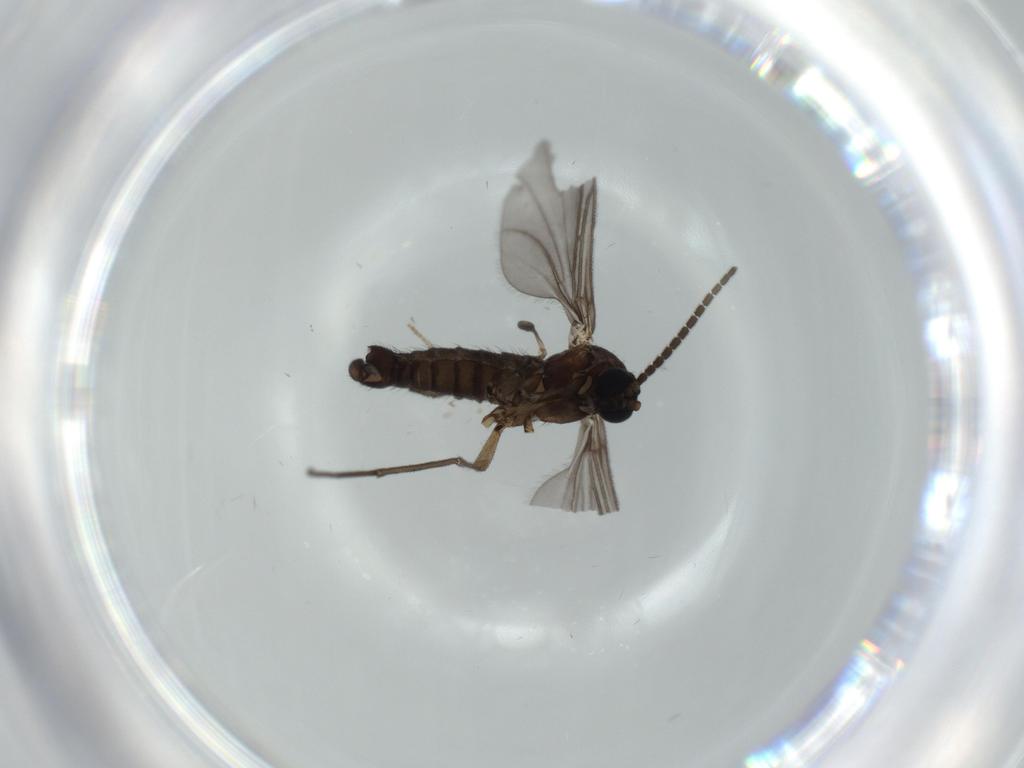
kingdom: Animalia
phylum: Arthropoda
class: Insecta
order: Diptera
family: Sciaridae
